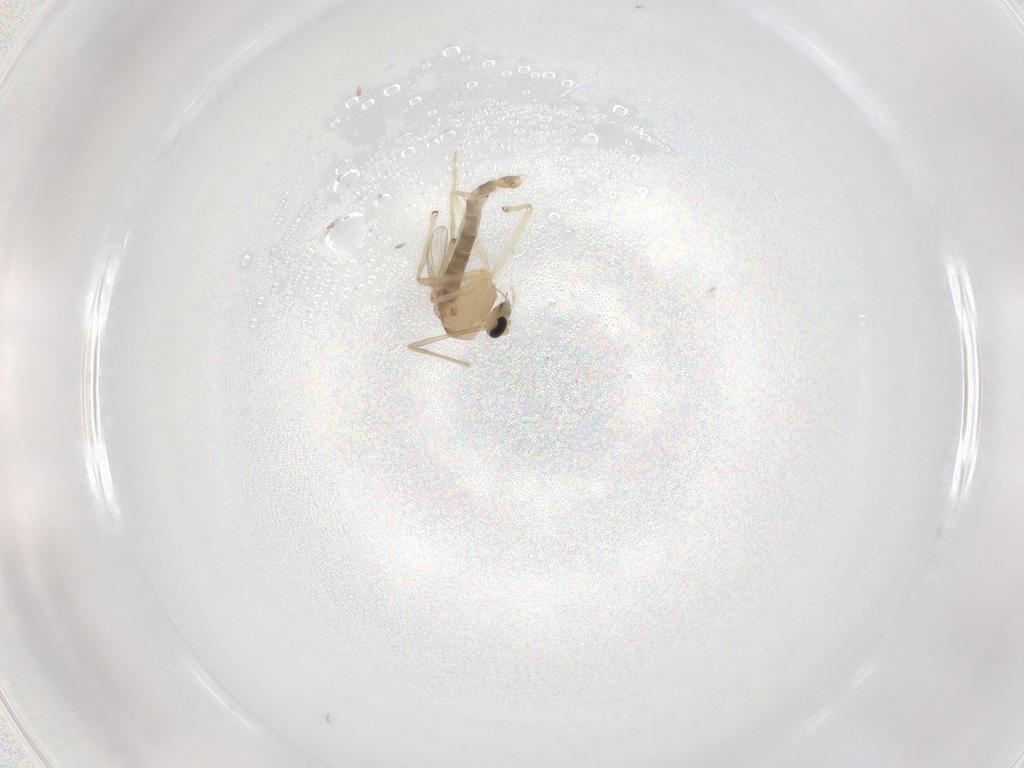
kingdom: Animalia
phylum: Arthropoda
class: Insecta
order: Diptera
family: Chironomidae
